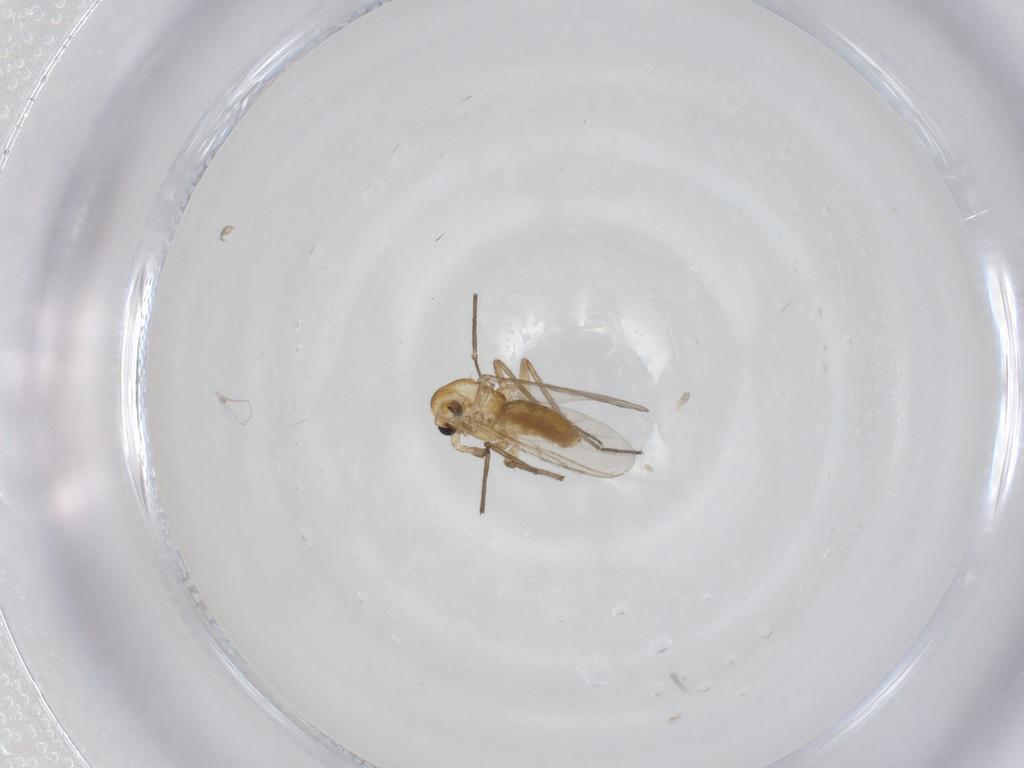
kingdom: Animalia
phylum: Arthropoda
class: Insecta
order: Diptera
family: Chironomidae
